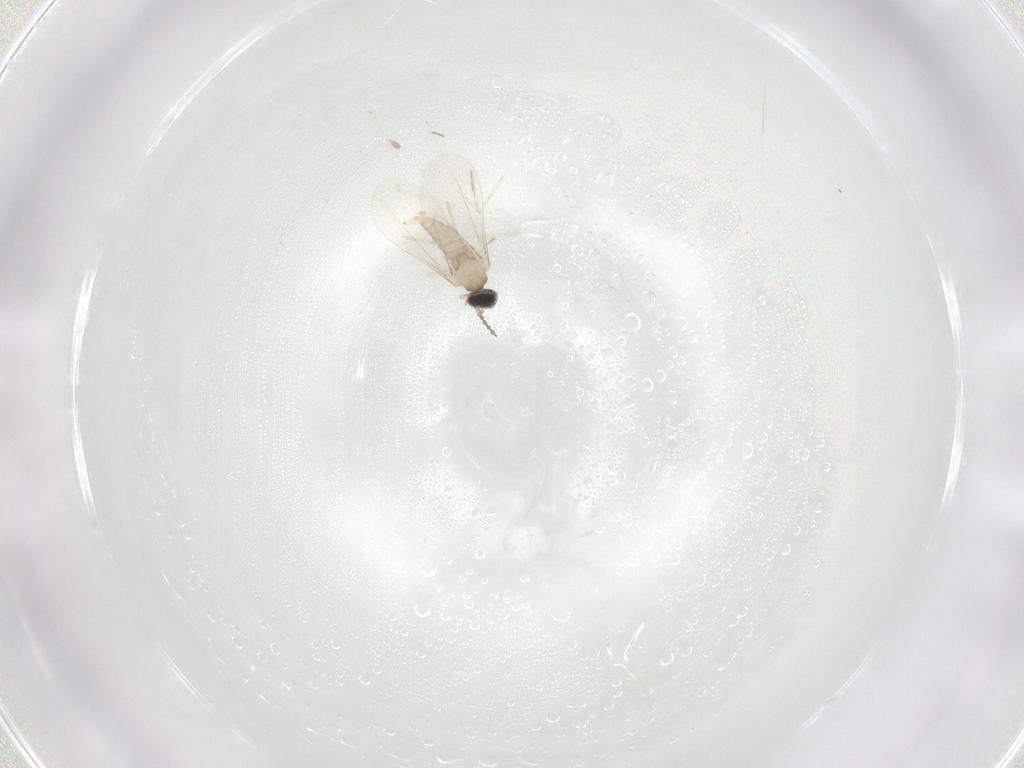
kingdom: Animalia
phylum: Arthropoda
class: Insecta
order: Diptera
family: Cecidomyiidae
